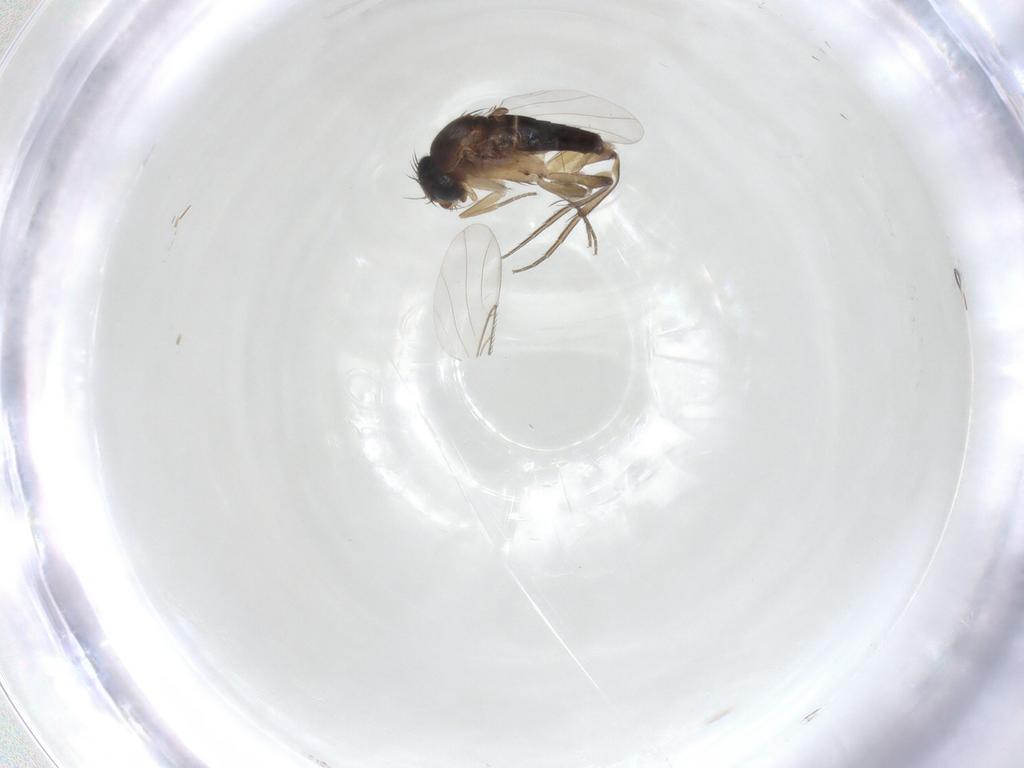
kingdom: Animalia
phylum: Arthropoda
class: Insecta
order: Diptera
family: Phoridae
